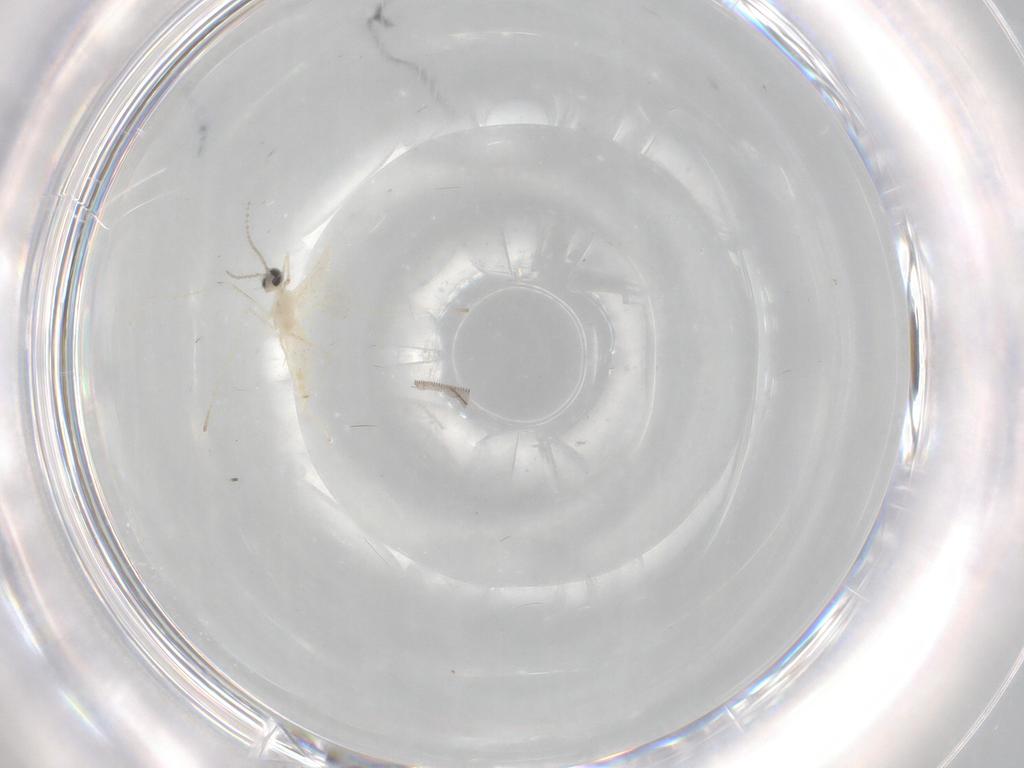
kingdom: Animalia
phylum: Arthropoda
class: Insecta
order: Diptera
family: Cecidomyiidae
